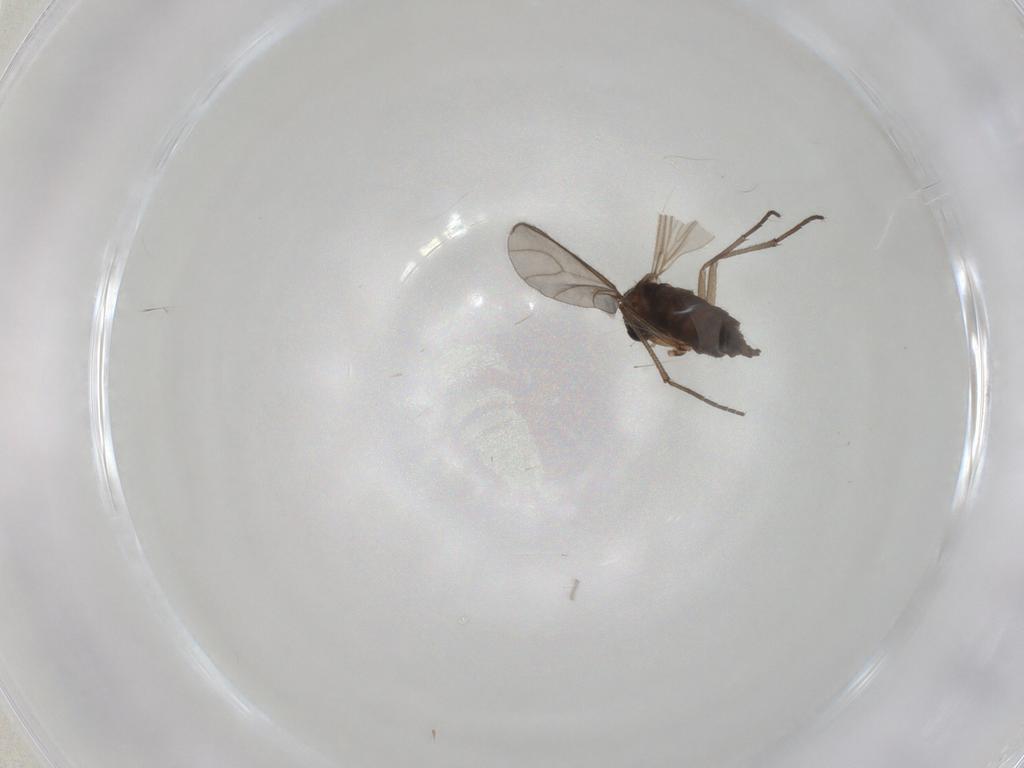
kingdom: Animalia
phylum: Arthropoda
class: Insecta
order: Diptera
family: Sciaridae
